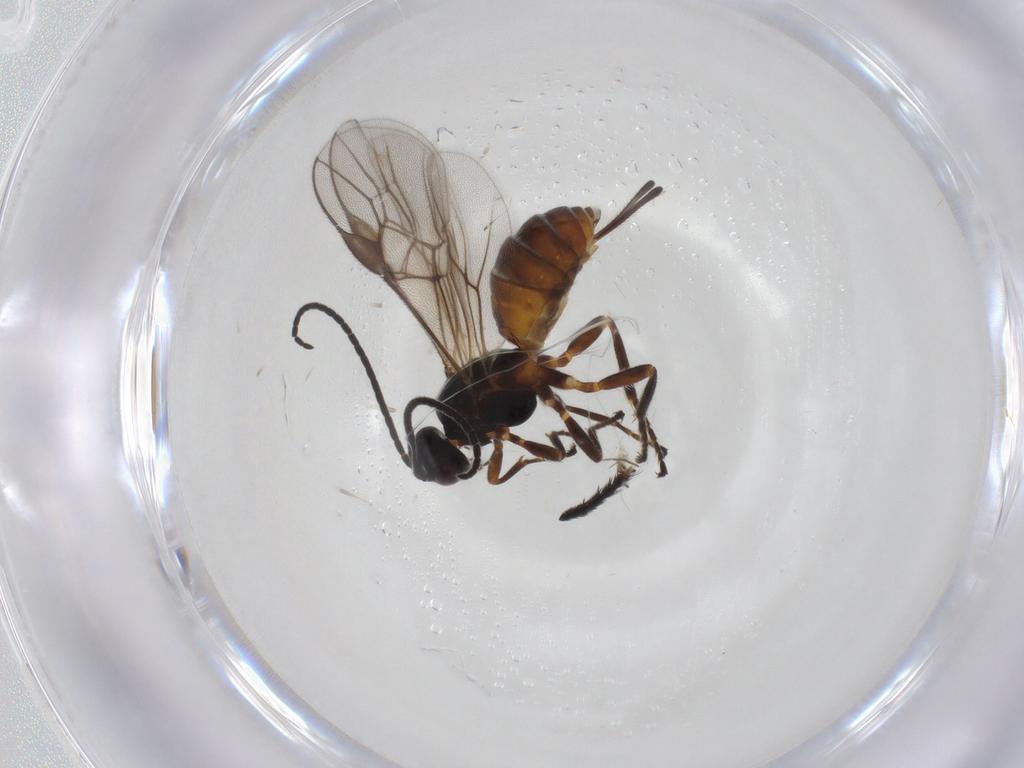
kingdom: Animalia
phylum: Arthropoda
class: Insecta
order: Hymenoptera
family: Braconidae
